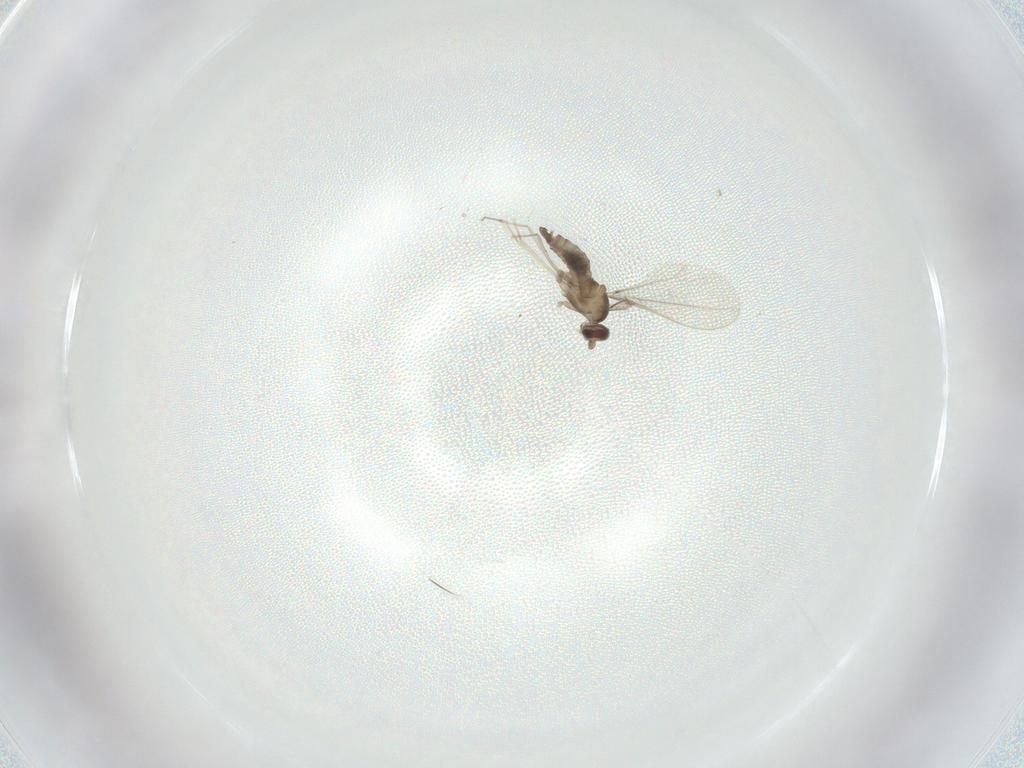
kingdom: Animalia
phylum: Arthropoda
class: Insecta
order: Diptera
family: Cecidomyiidae
